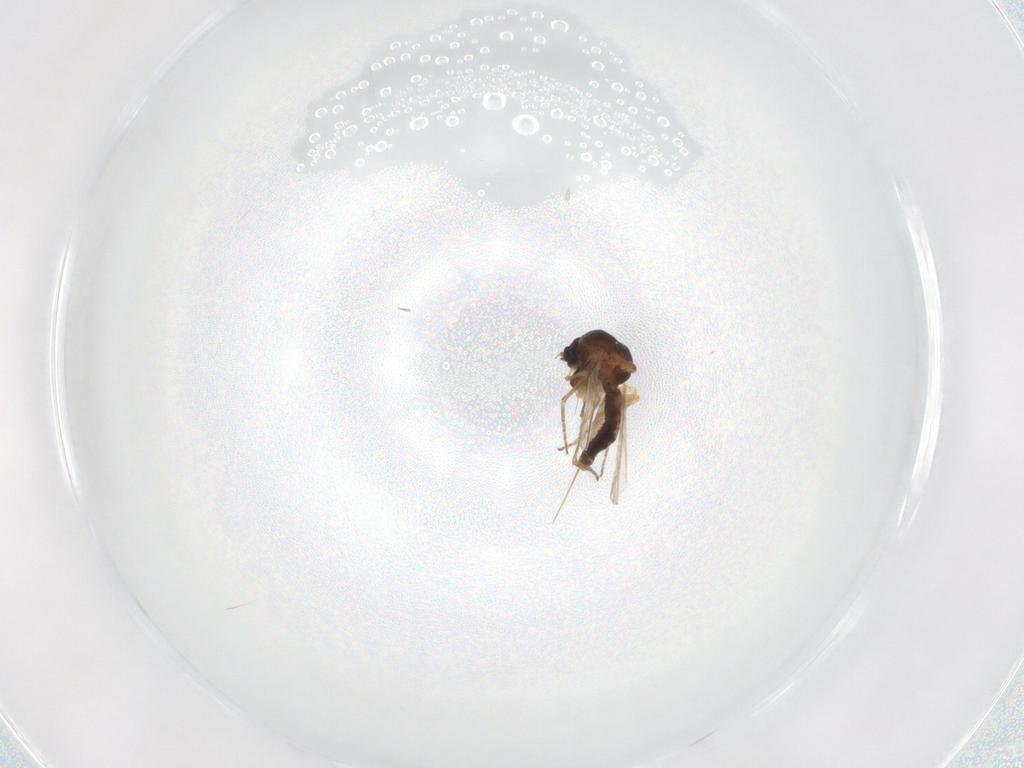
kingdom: Animalia
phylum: Arthropoda
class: Insecta
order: Diptera
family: Ceratopogonidae
